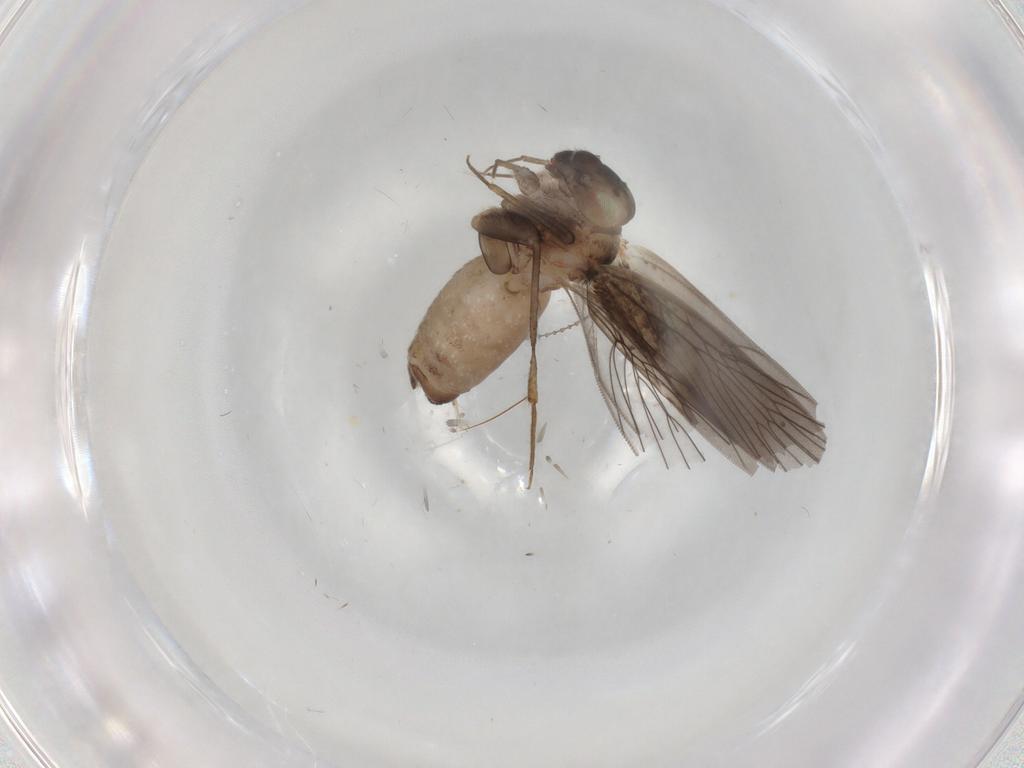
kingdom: Animalia
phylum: Arthropoda
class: Insecta
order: Psocodea
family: Lepidopsocidae
